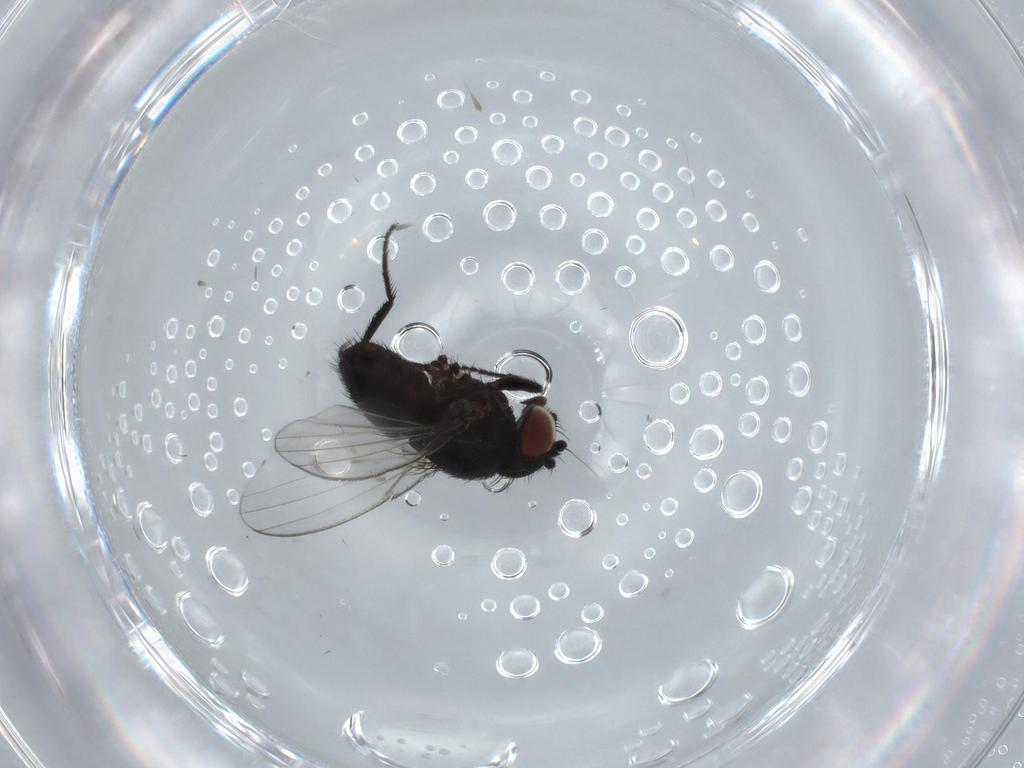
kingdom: Animalia
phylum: Arthropoda
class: Insecta
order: Diptera
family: Milichiidae
